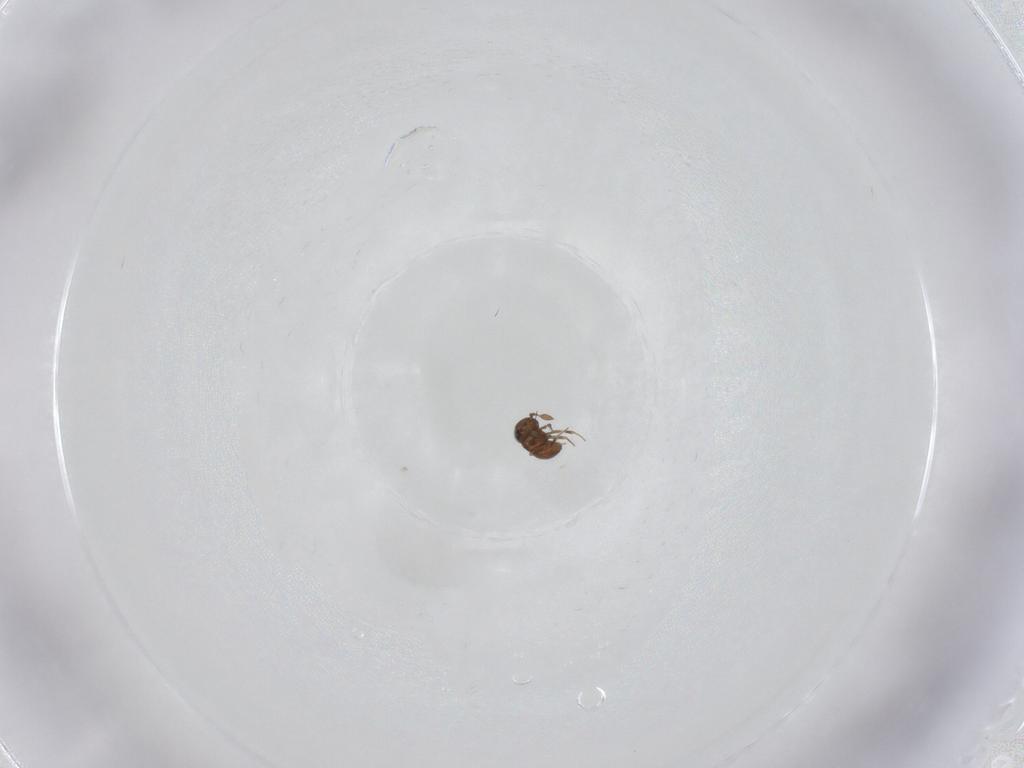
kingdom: Animalia
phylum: Arthropoda
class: Insecta
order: Hymenoptera
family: Scelionidae
